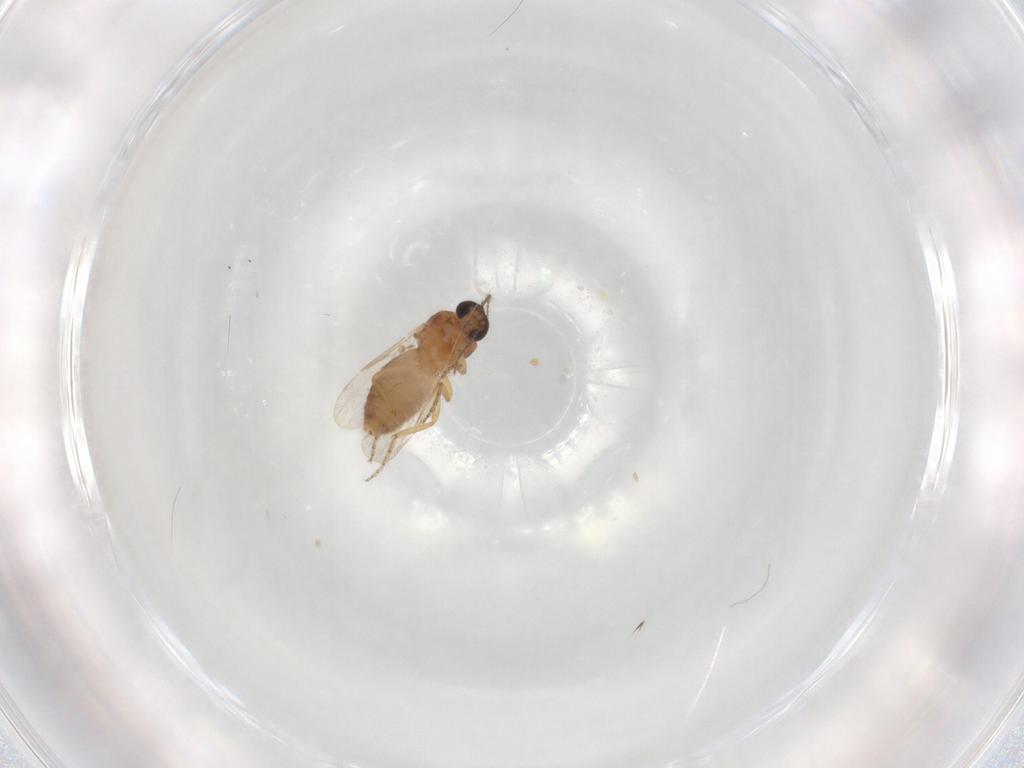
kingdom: Animalia
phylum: Arthropoda
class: Insecta
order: Diptera
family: Ceratopogonidae
